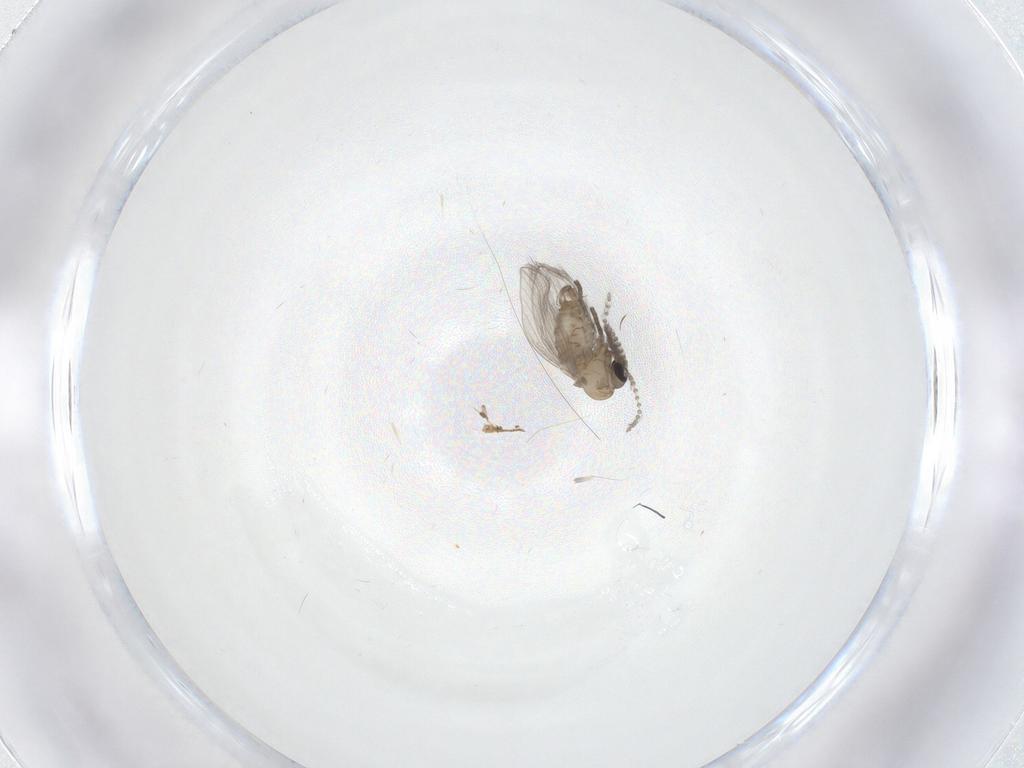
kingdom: Animalia
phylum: Arthropoda
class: Insecta
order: Diptera
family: Psychodidae
